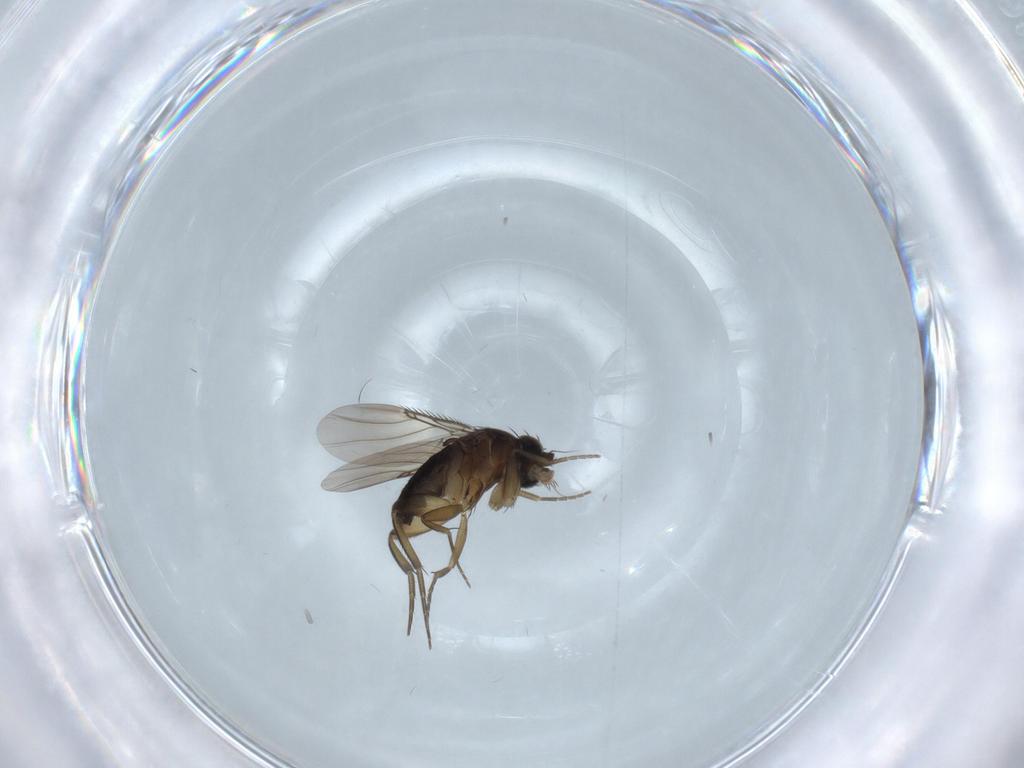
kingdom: Animalia
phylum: Arthropoda
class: Insecta
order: Diptera
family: Phoridae
